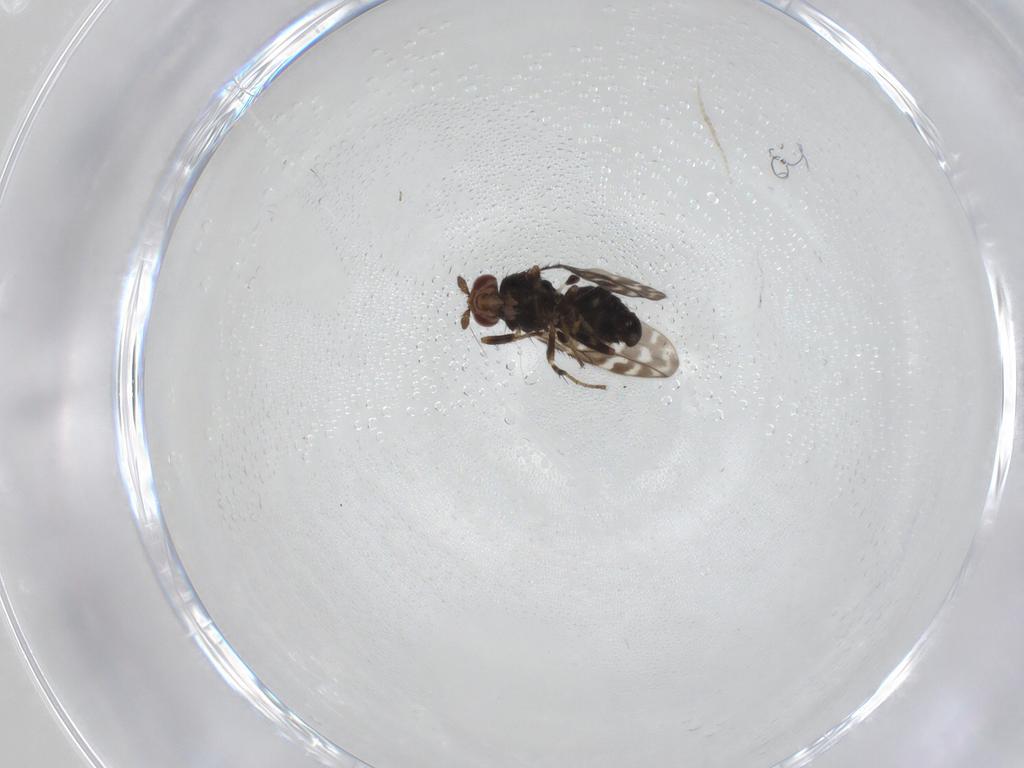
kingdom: Animalia
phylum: Arthropoda
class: Insecta
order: Diptera
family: Sphaeroceridae
